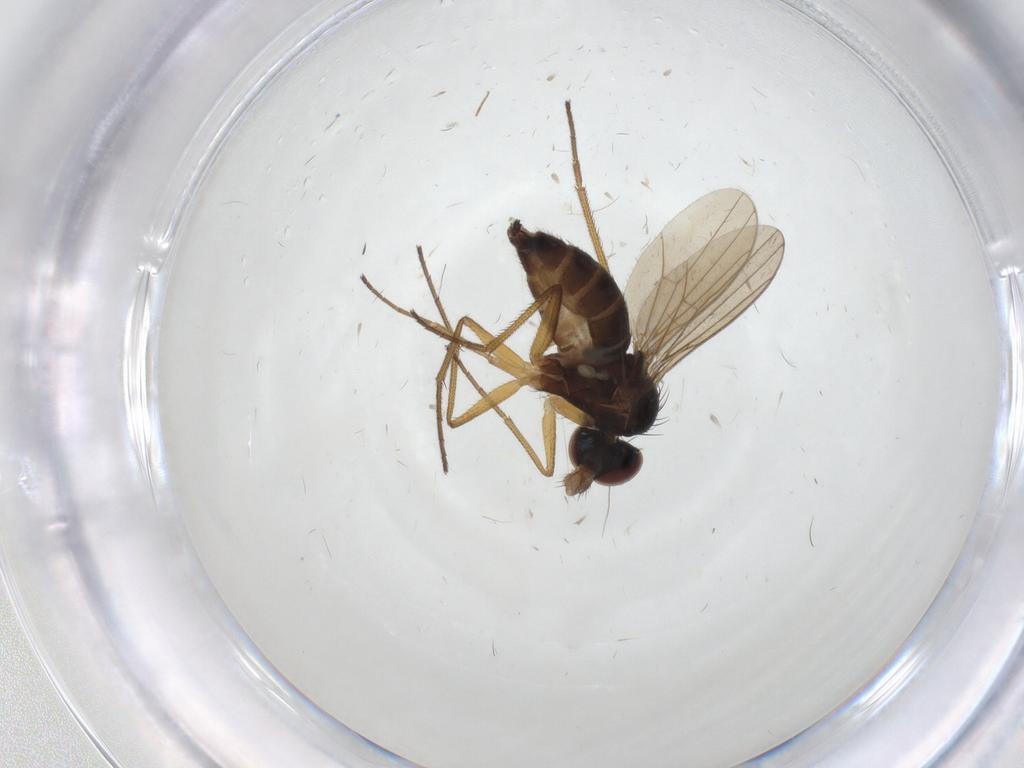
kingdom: Animalia
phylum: Arthropoda
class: Insecta
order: Diptera
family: Dolichopodidae
